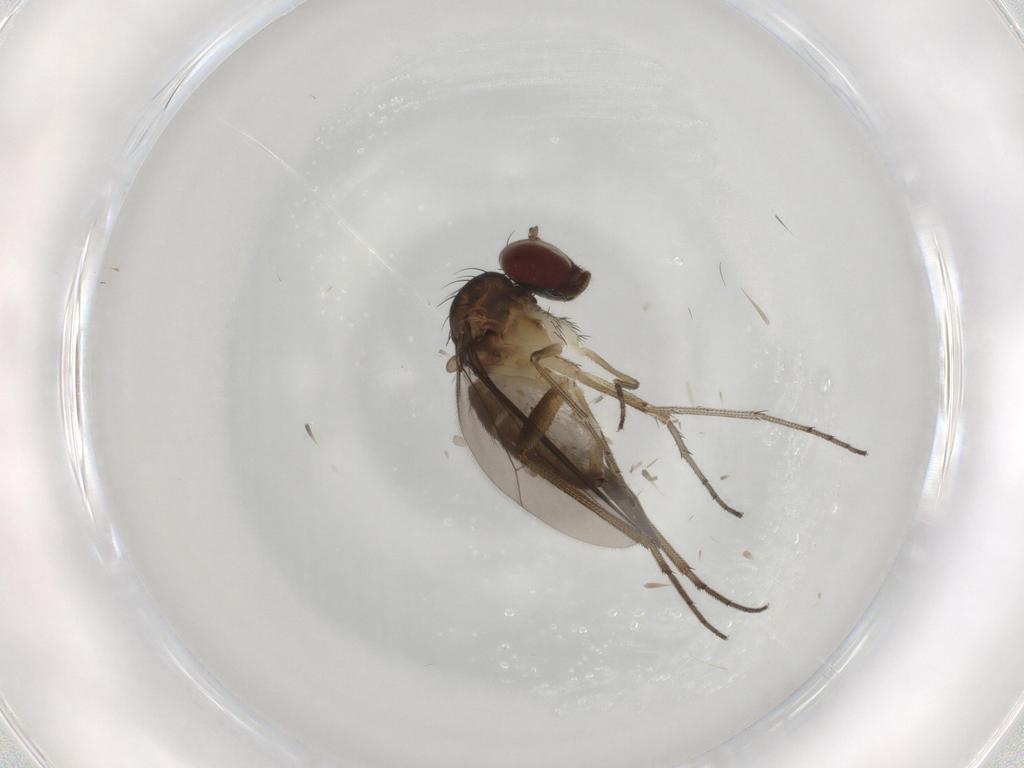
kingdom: Animalia
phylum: Arthropoda
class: Insecta
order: Diptera
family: Dolichopodidae
